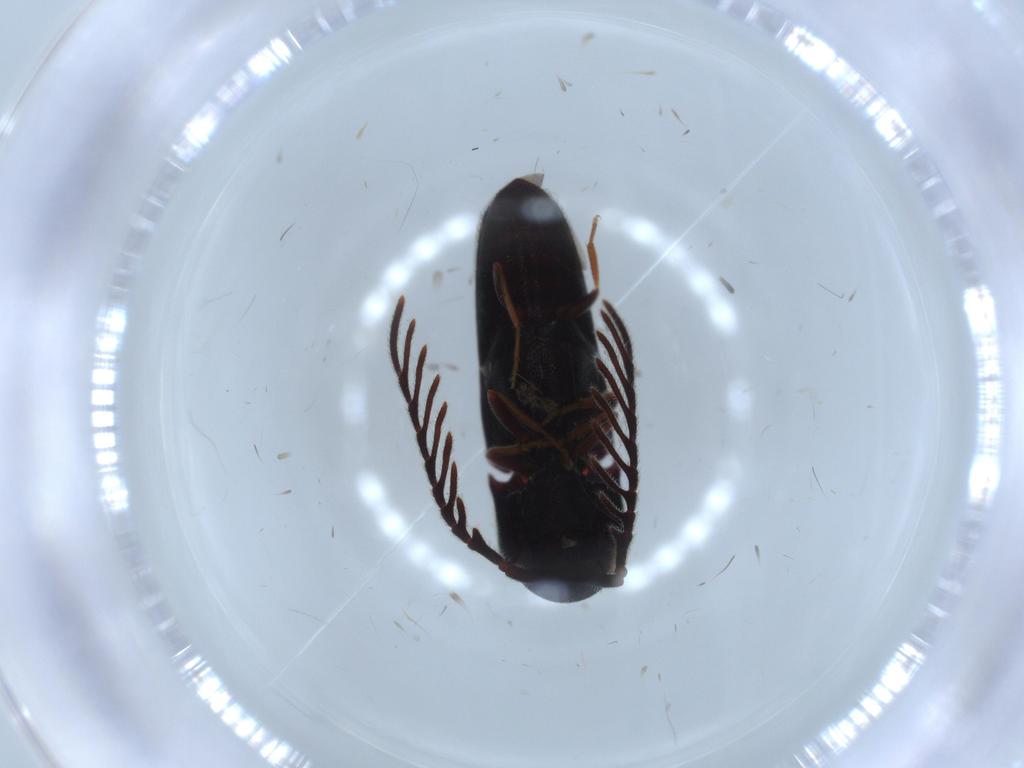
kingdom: Animalia
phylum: Arthropoda
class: Insecta
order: Coleoptera
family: Eucnemidae
